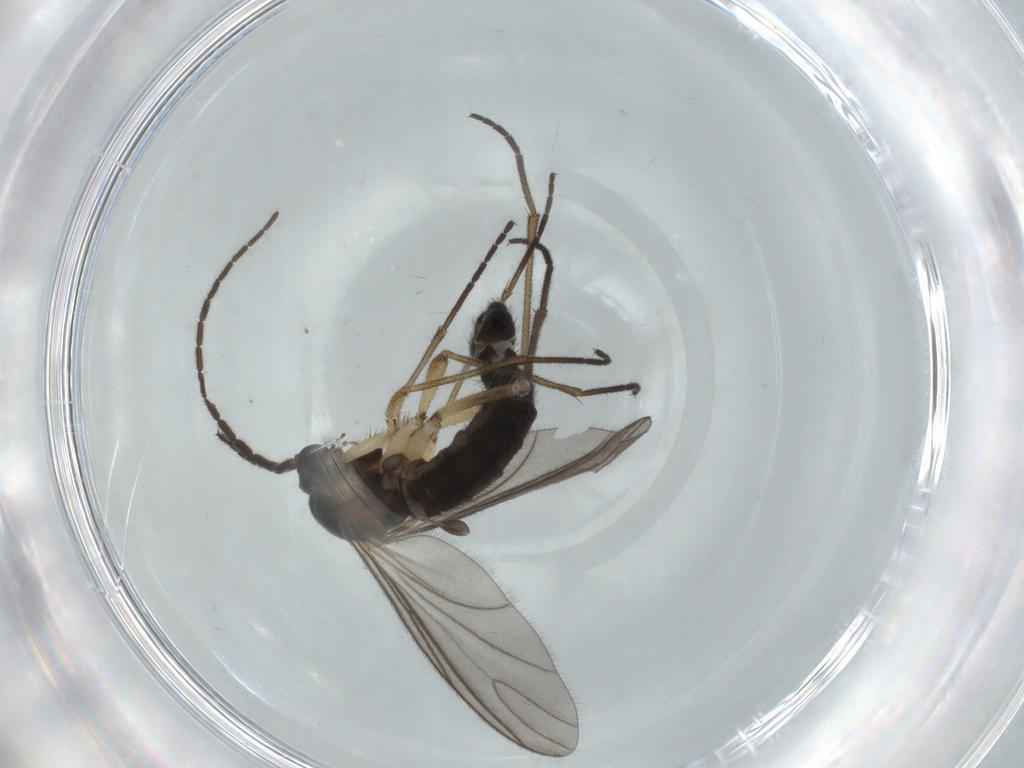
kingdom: Animalia
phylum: Arthropoda
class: Insecta
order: Diptera
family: Sciaridae
